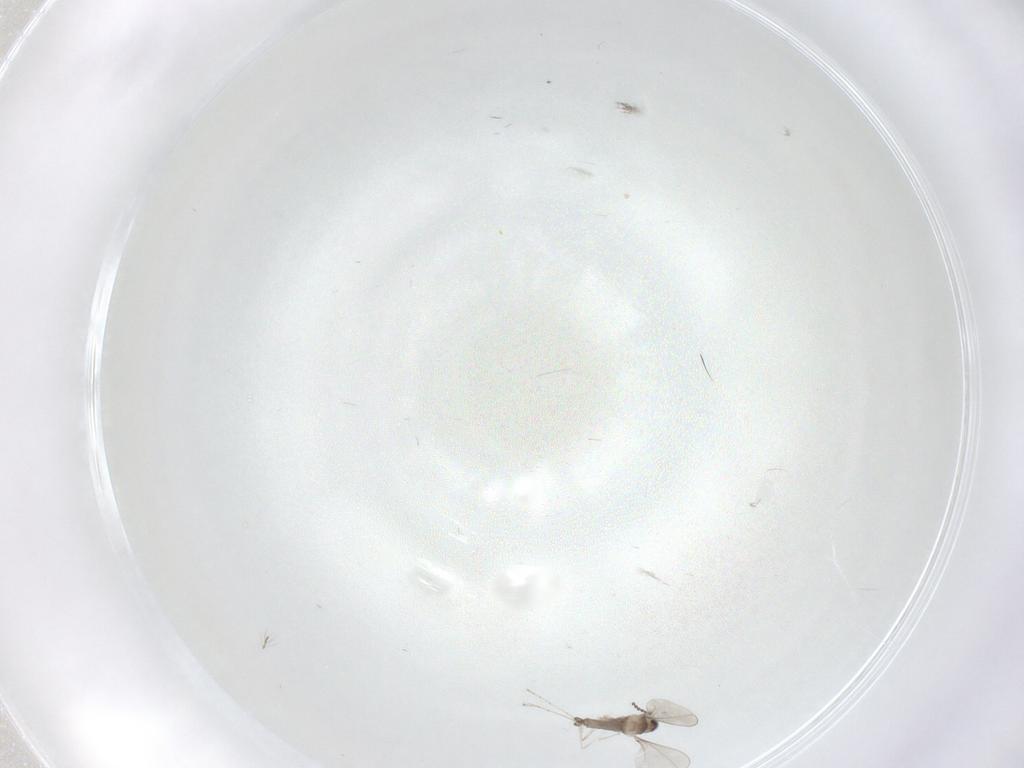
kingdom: Animalia
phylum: Arthropoda
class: Insecta
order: Diptera
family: Cecidomyiidae
